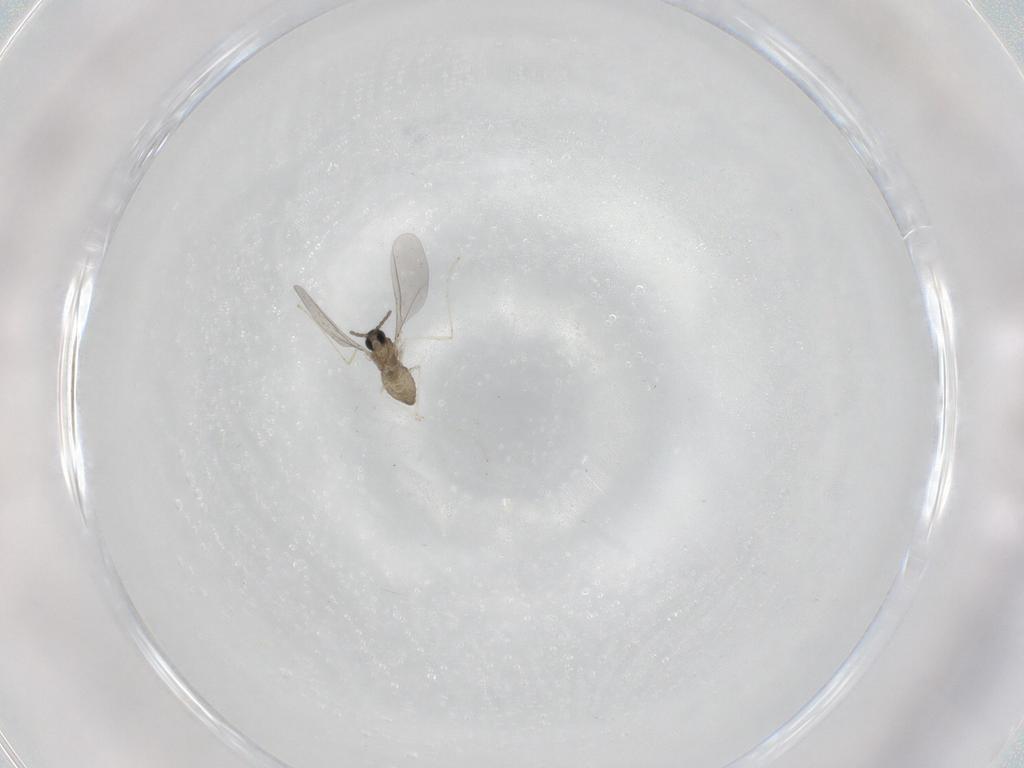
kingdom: Animalia
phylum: Arthropoda
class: Insecta
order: Diptera
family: Cecidomyiidae
